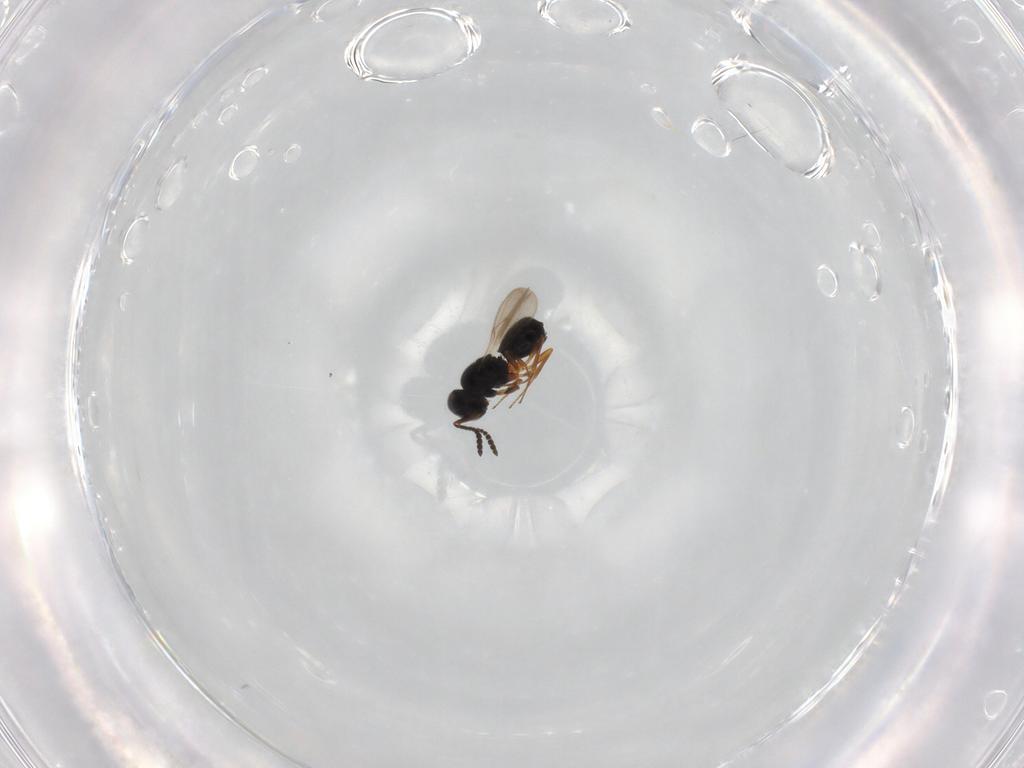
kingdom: Animalia
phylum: Arthropoda
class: Insecta
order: Hymenoptera
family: Scelionidae
